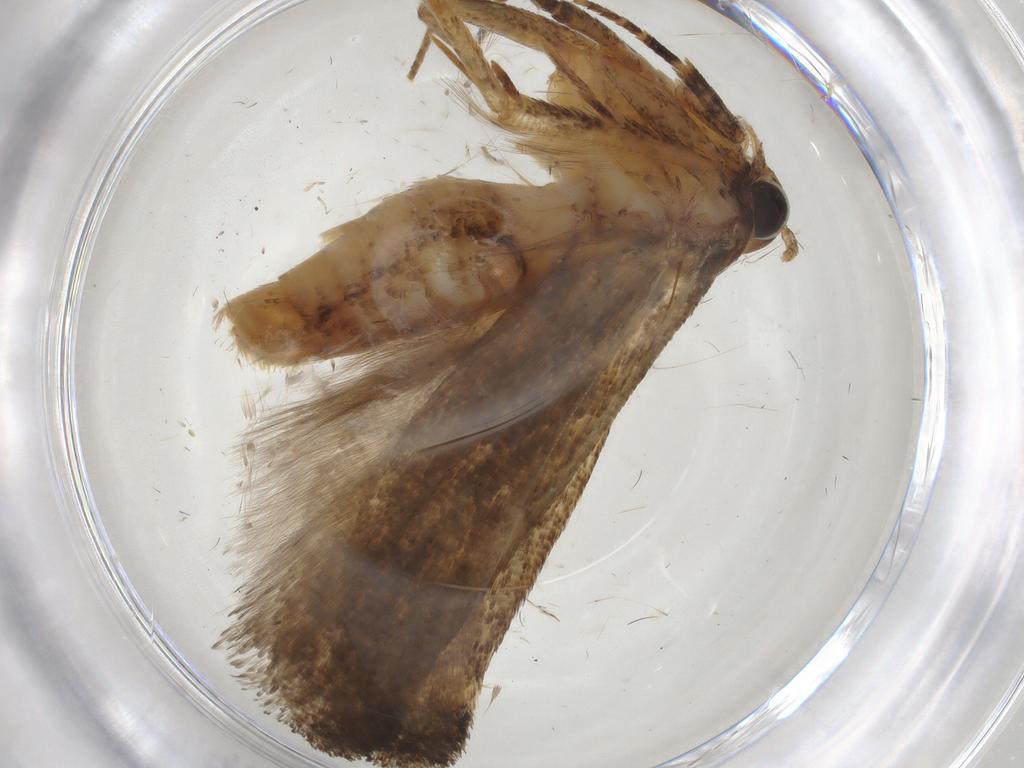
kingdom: Animalia
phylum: Arthropoda
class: Insecta
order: Lepidoptera
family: Gelechiidae
